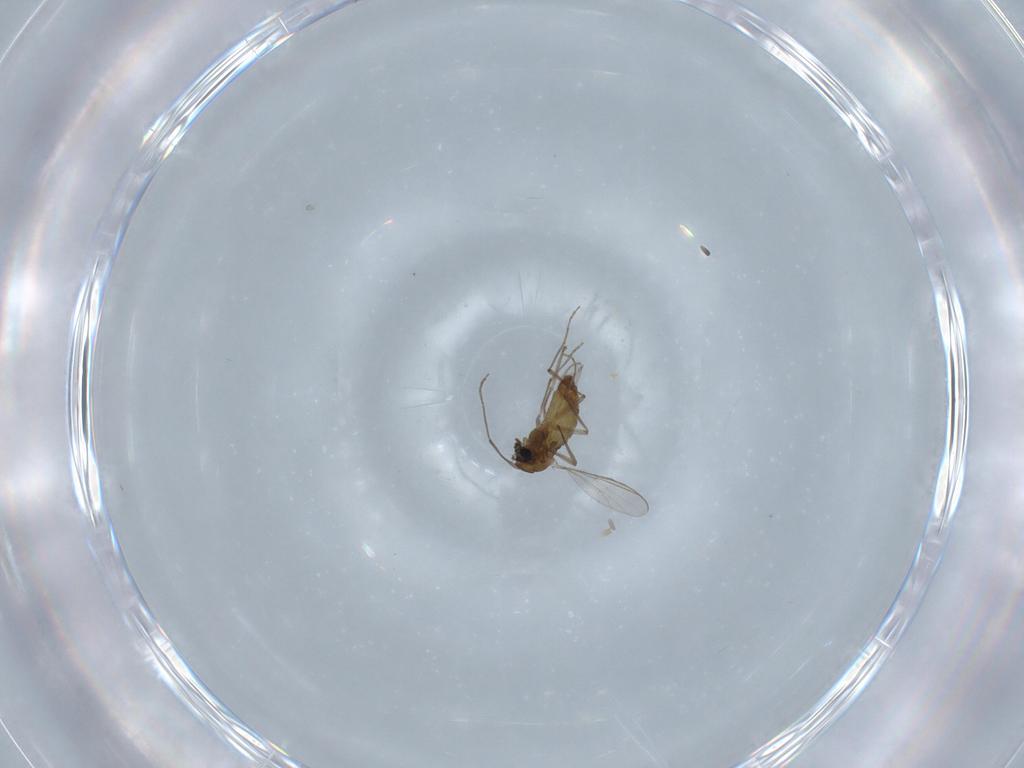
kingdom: Animalia
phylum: Arthropoda
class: Insecta
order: Diptera
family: Chironomidae
